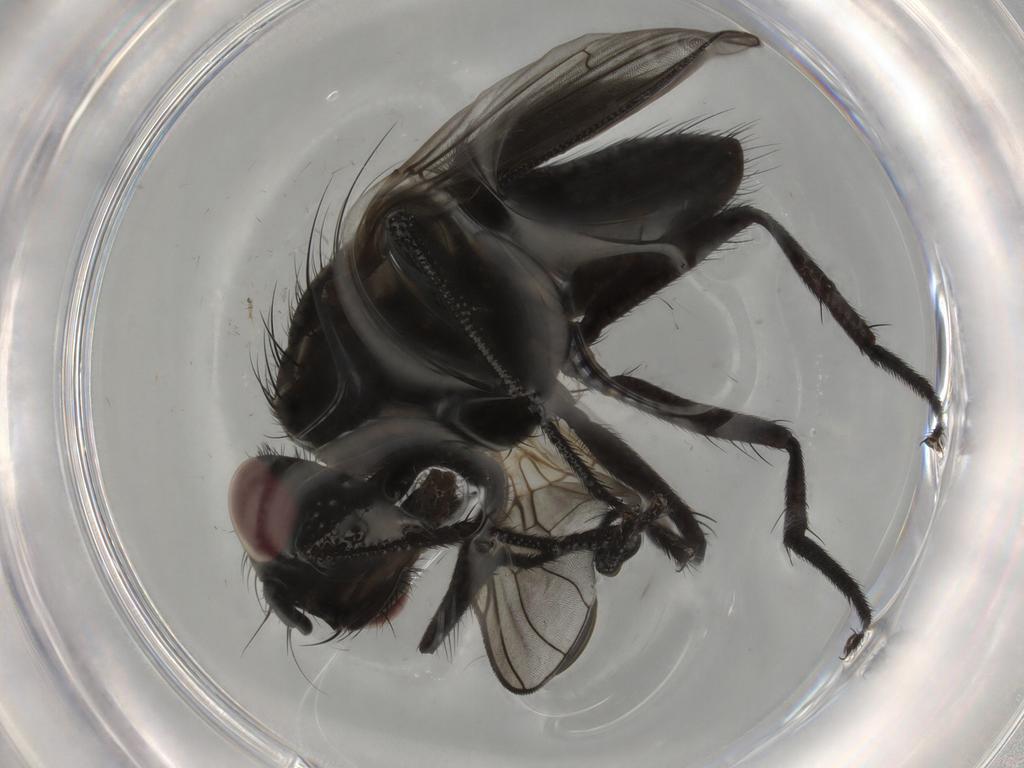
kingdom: Animalia
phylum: Arthropoda
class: Insecta
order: Diptera
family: Muscidae
